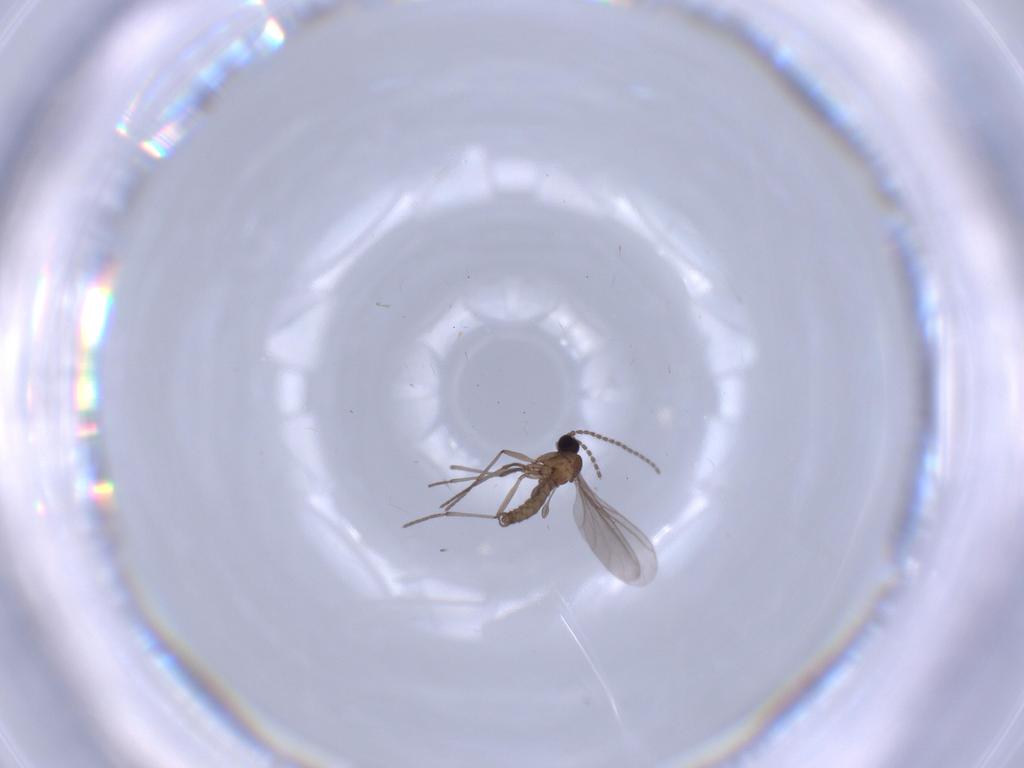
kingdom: Animalia
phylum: Arthropoda
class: Insecta
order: Diptera
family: Sciaridae
